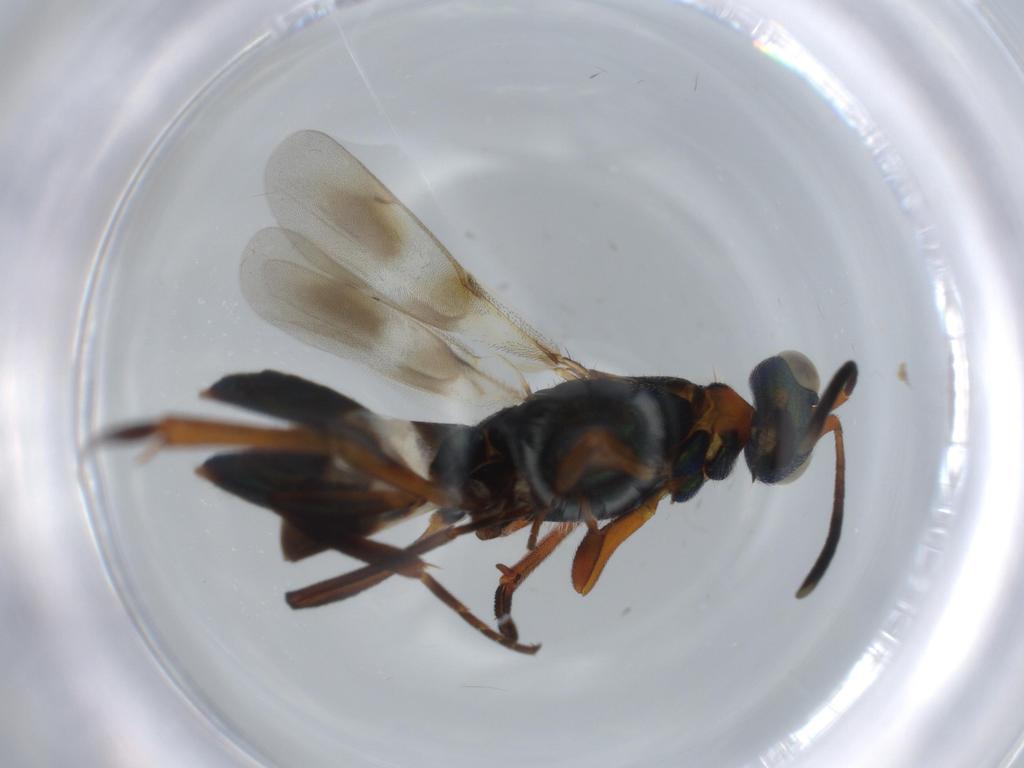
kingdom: Animalia
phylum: Arthropoda
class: Insecta
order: Hymenoptera
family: Eupelmidae
